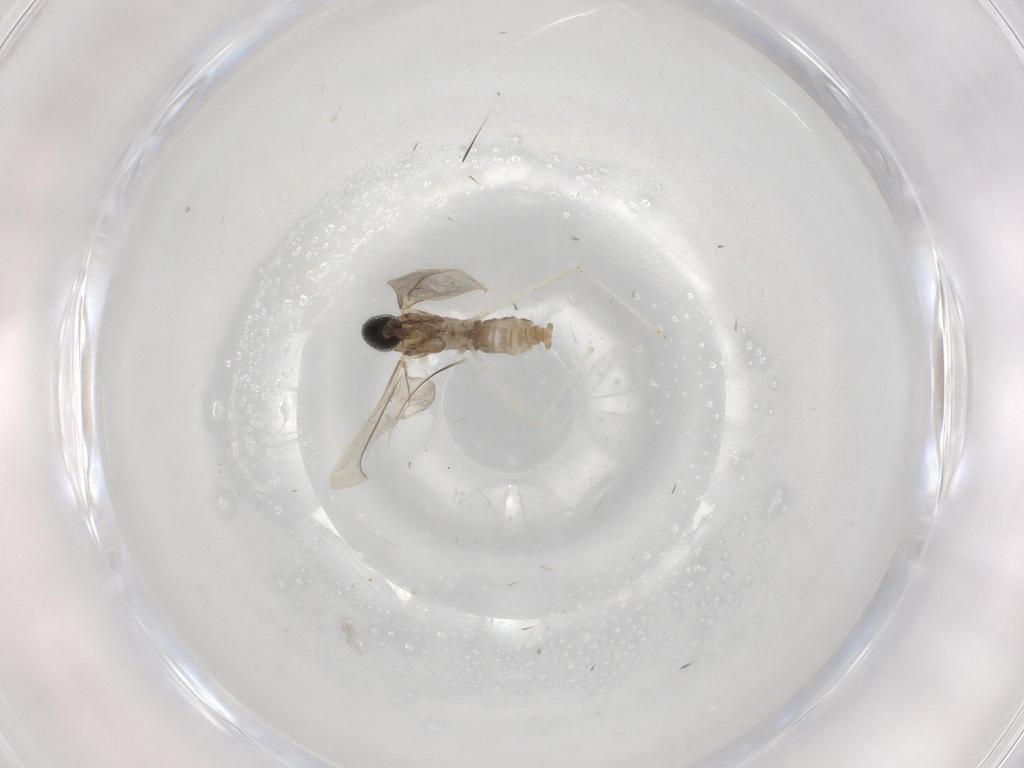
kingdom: Animalia
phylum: Arthropoda
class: Insecta
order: Diptera
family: Cecidomyiidae
